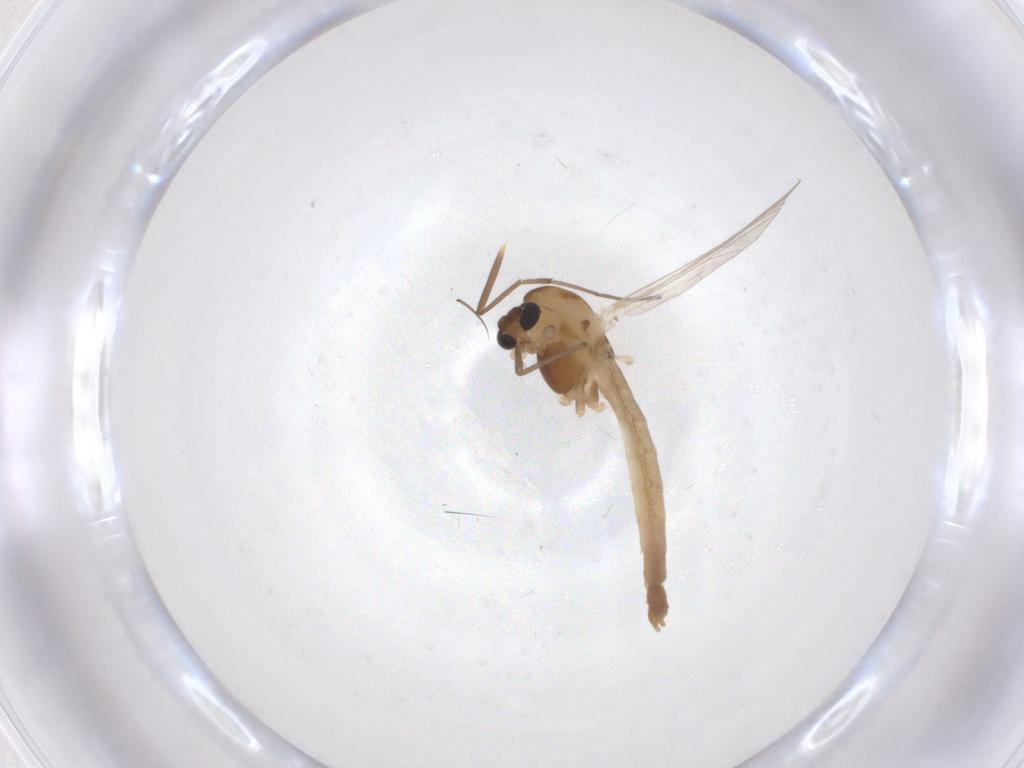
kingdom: Animalia
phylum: Arthropoda
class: Insecta
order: Diptera
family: Chironomidae
